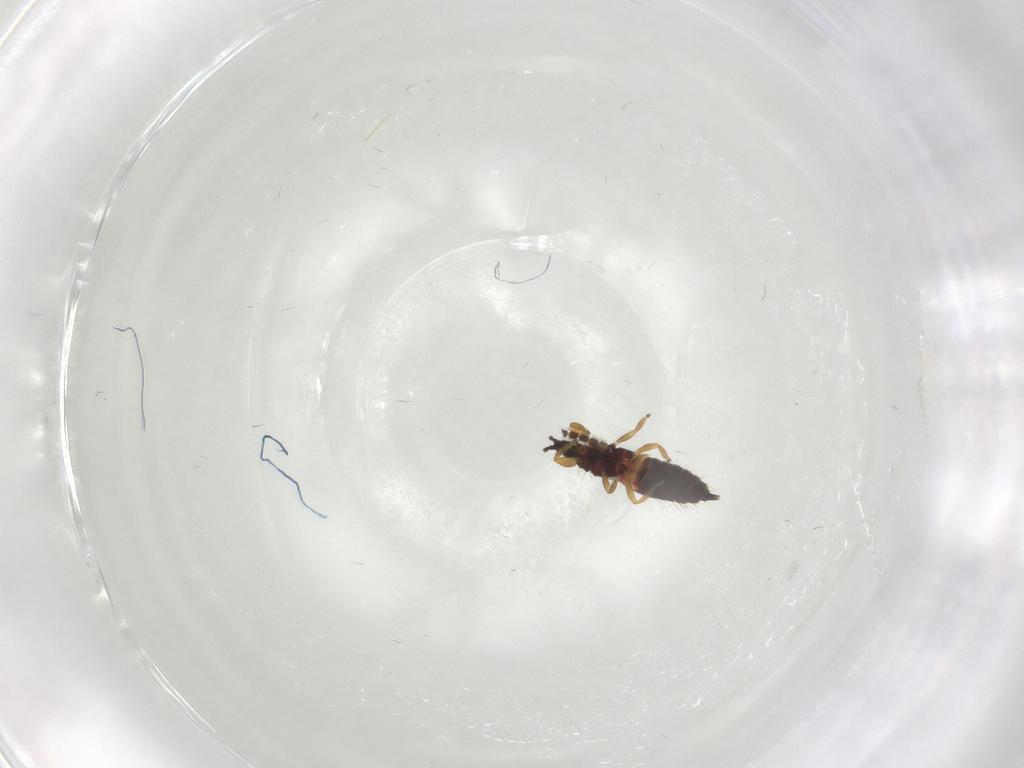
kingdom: Animalia
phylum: Arthropoda
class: Insecta
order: Thysanoptera
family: Phlaeothripidae
